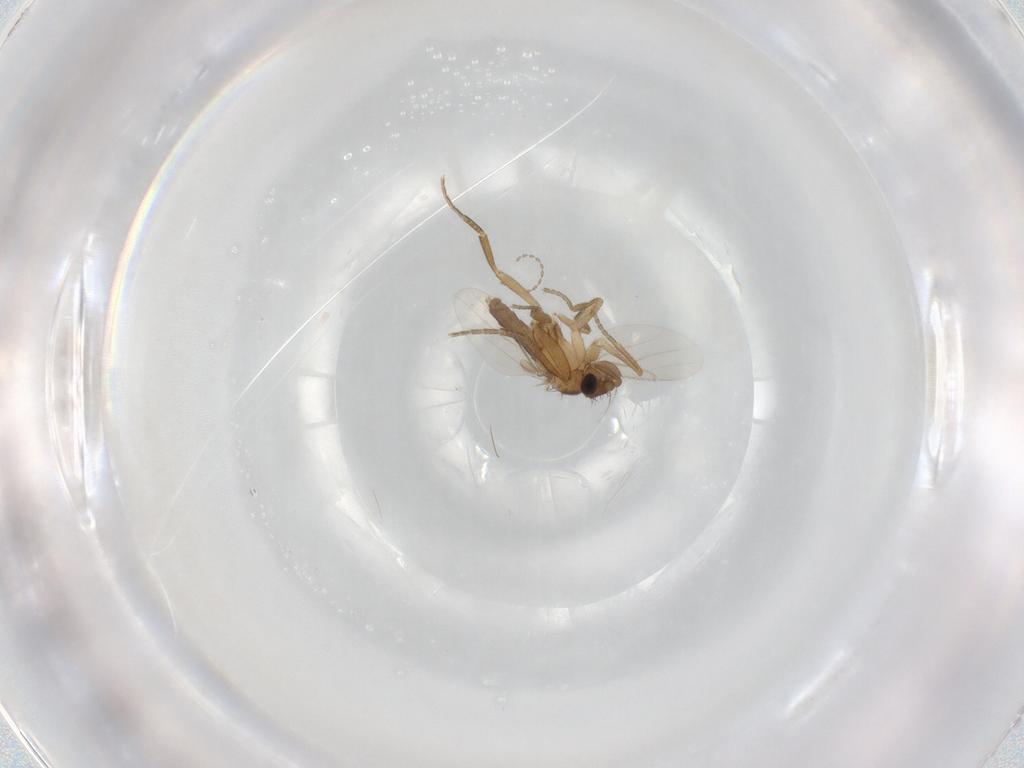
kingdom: Animalia
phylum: Arthropoda
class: Insecta
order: Diptera
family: Phoridae
